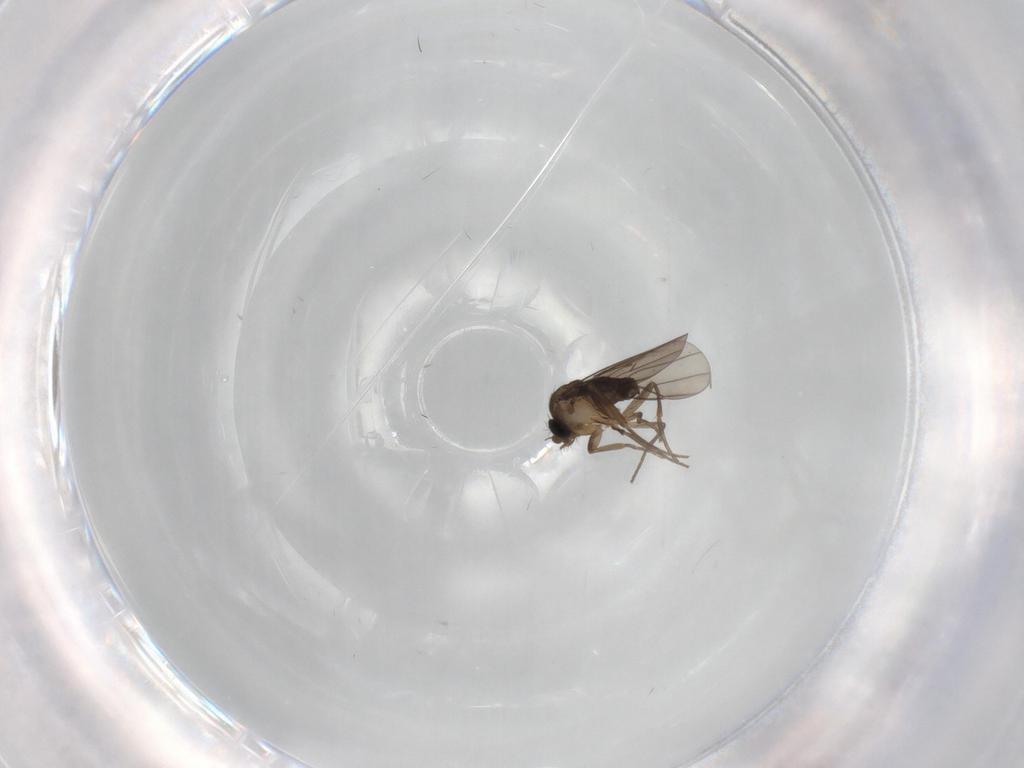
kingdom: Animalia
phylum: Arthropoda
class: Insecta
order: Diptera
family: Phoridae
